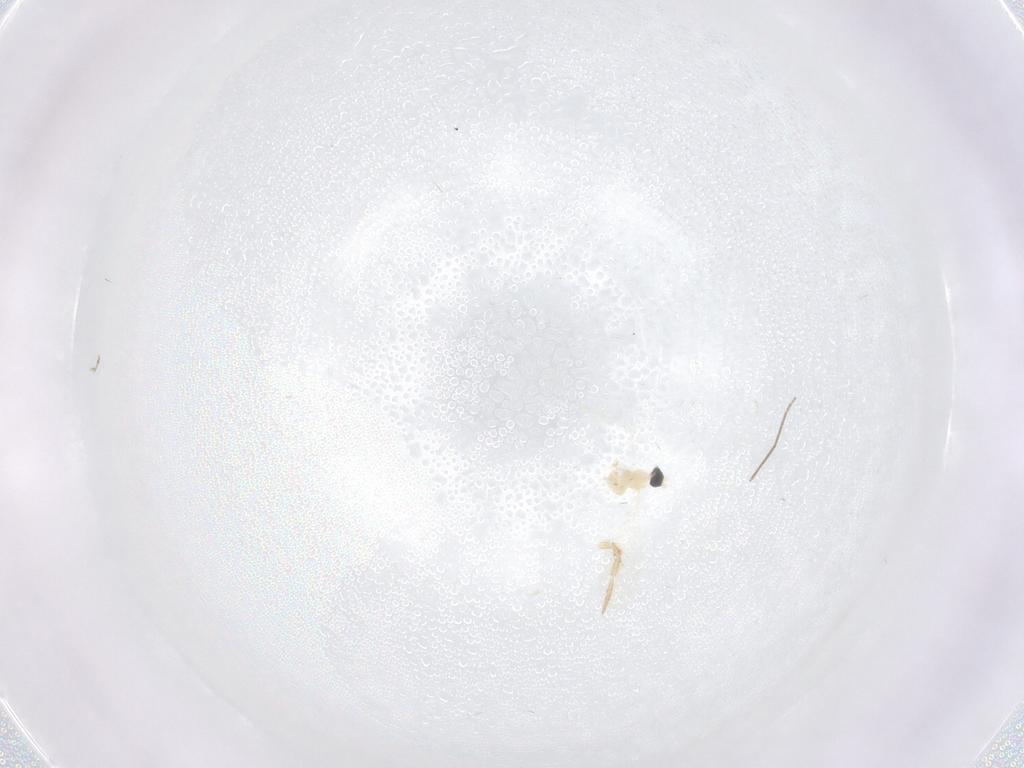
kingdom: Animalia
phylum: Arthropoda
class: Insecta
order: Diptera
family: Cecidomyiidae
